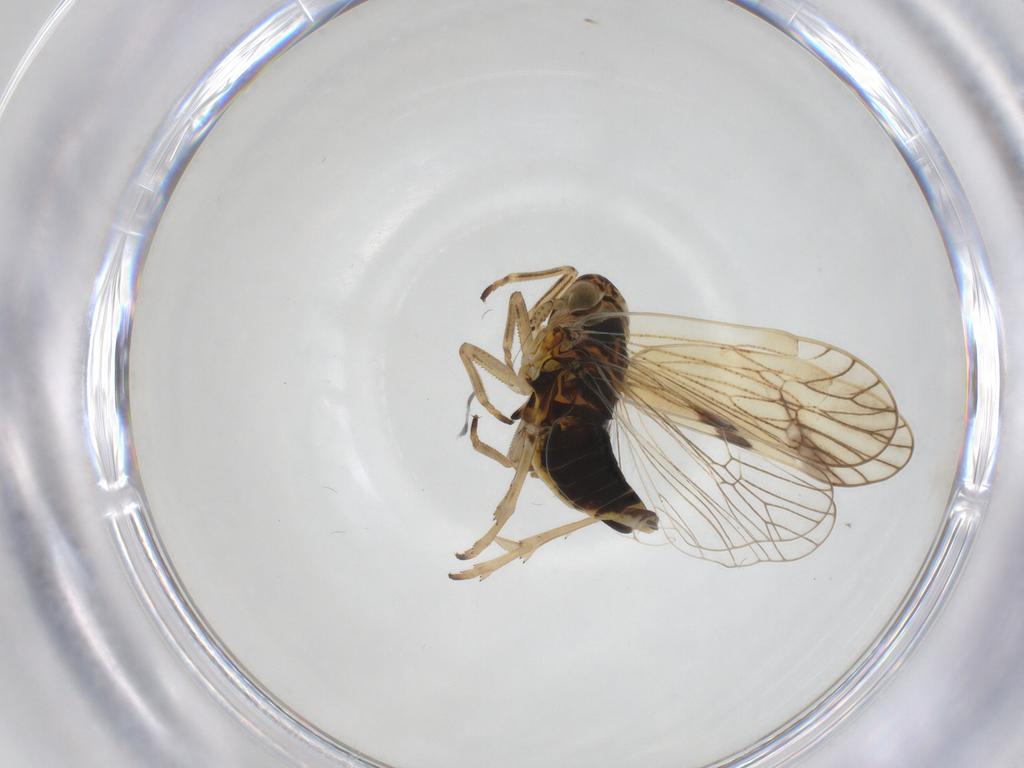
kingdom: Animalia
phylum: Arthropoda
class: Insecta
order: Hemiptera
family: Delphacidae
